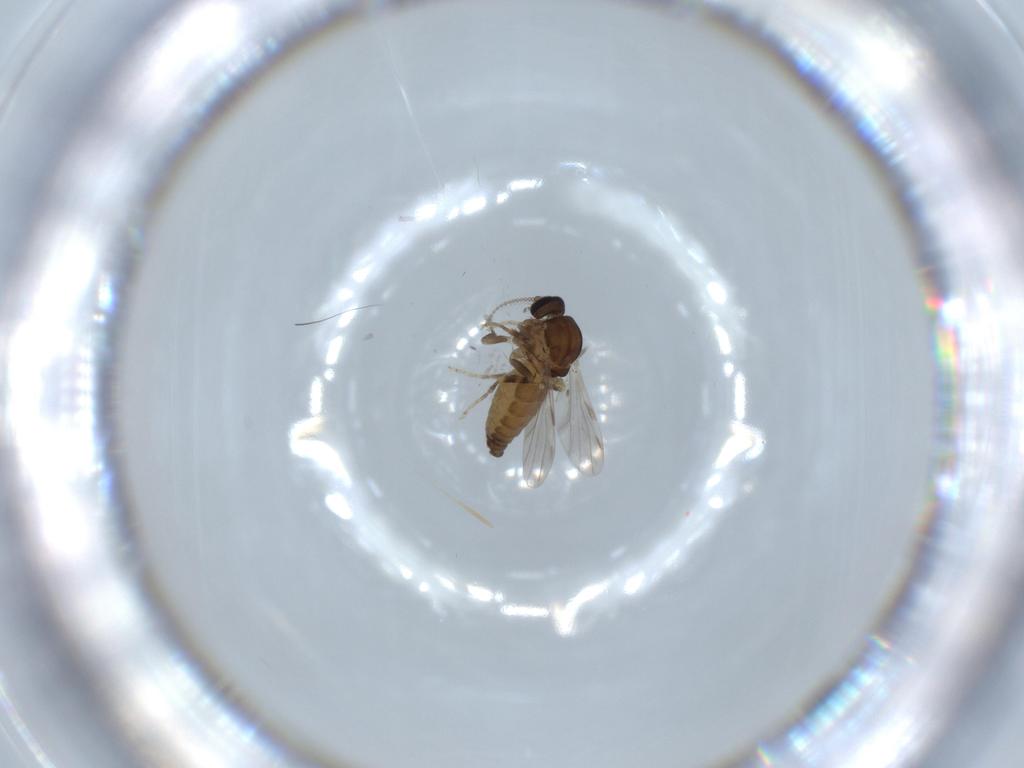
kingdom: Animalia
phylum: Arthropoda
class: Insecta
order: Diptera
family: Ceratopogonidae
